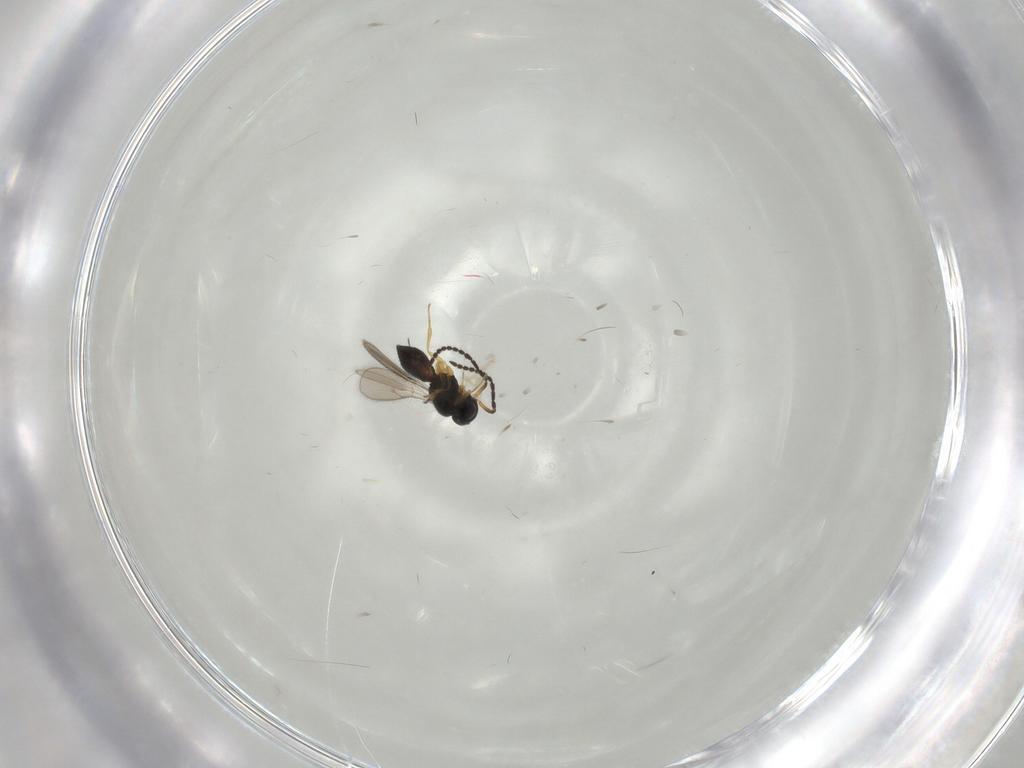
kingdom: Animalia
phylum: Arthropoda
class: Insecta
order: Hymenoptera
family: Scelionidae
